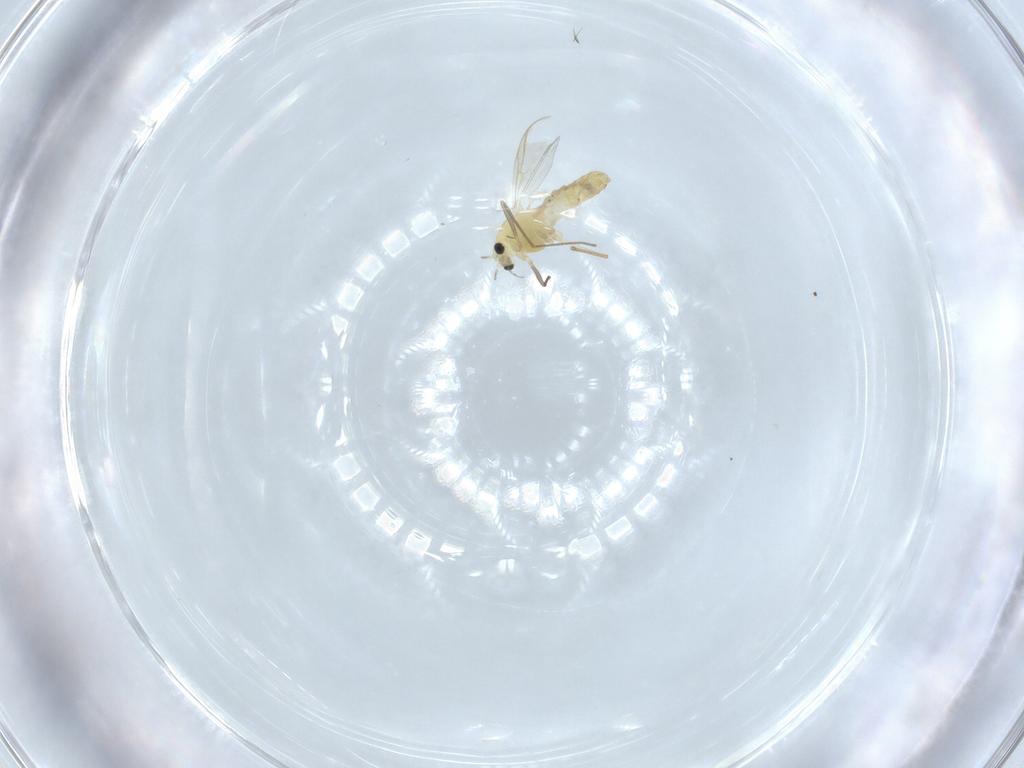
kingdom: Animalia
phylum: Arthropoda
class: Insecta
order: Diptera
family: Chironomidae
